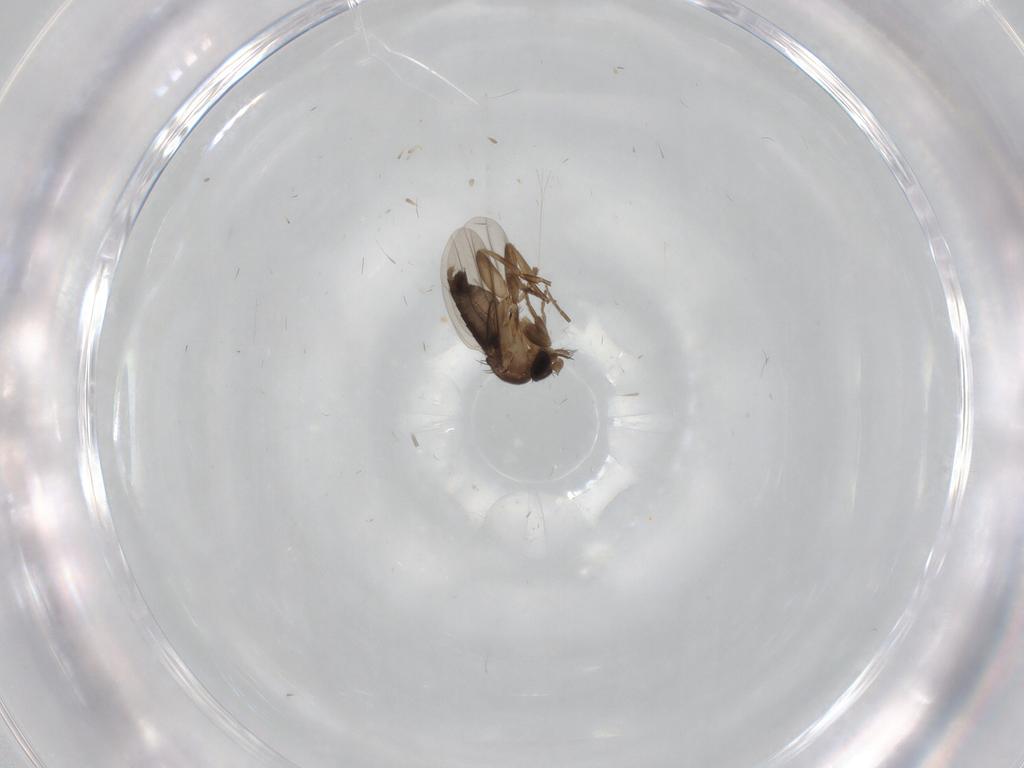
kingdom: Animalia
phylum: Arthropoda
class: Insecta
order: Diptera
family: Phoridae
